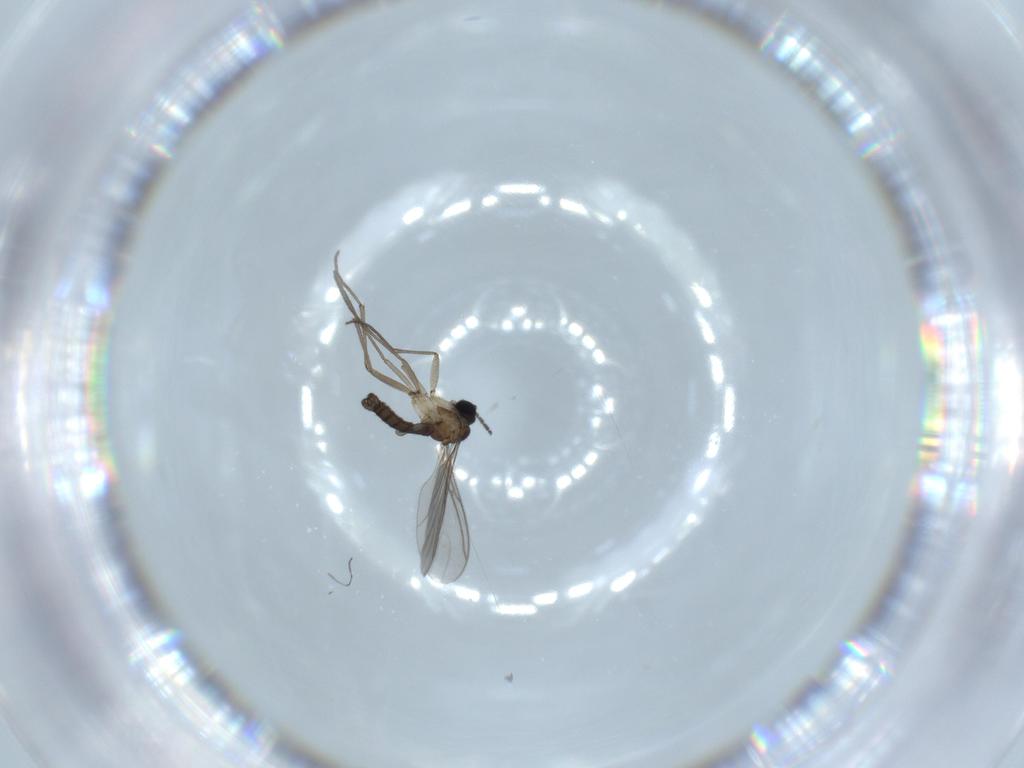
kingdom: Animalia
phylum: Arthropoda
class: Insecta
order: Diptera
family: Sciaridae
